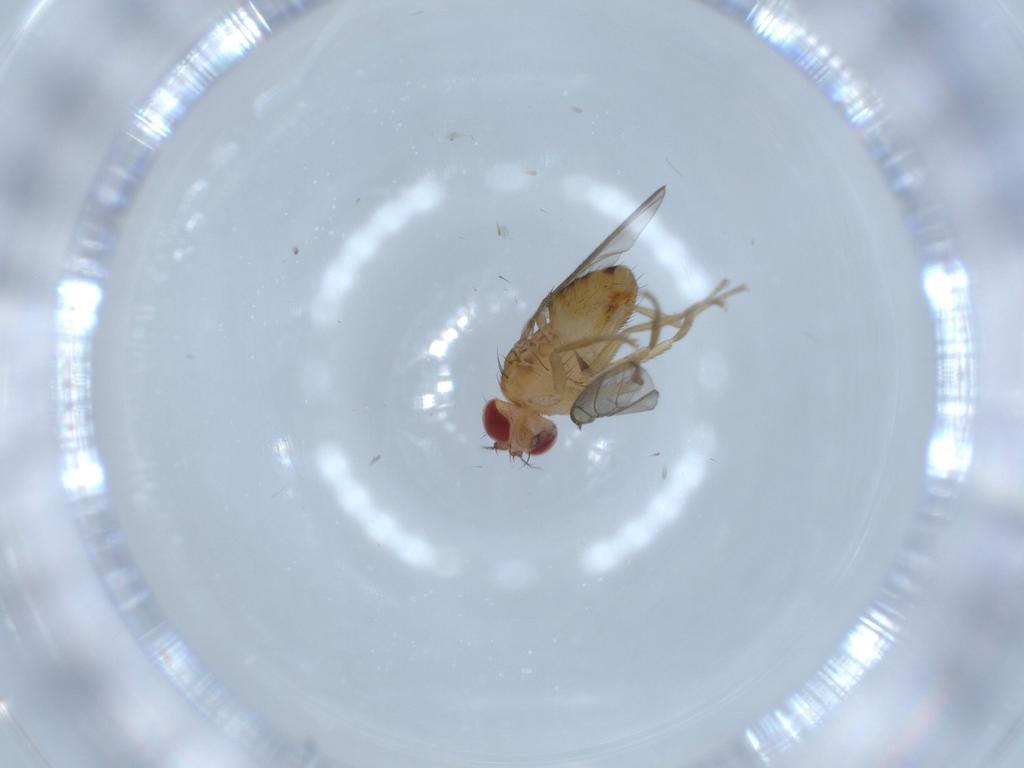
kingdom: Animalia
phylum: Arthropoda
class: Insecta
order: Diptera
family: Drosophilidae
